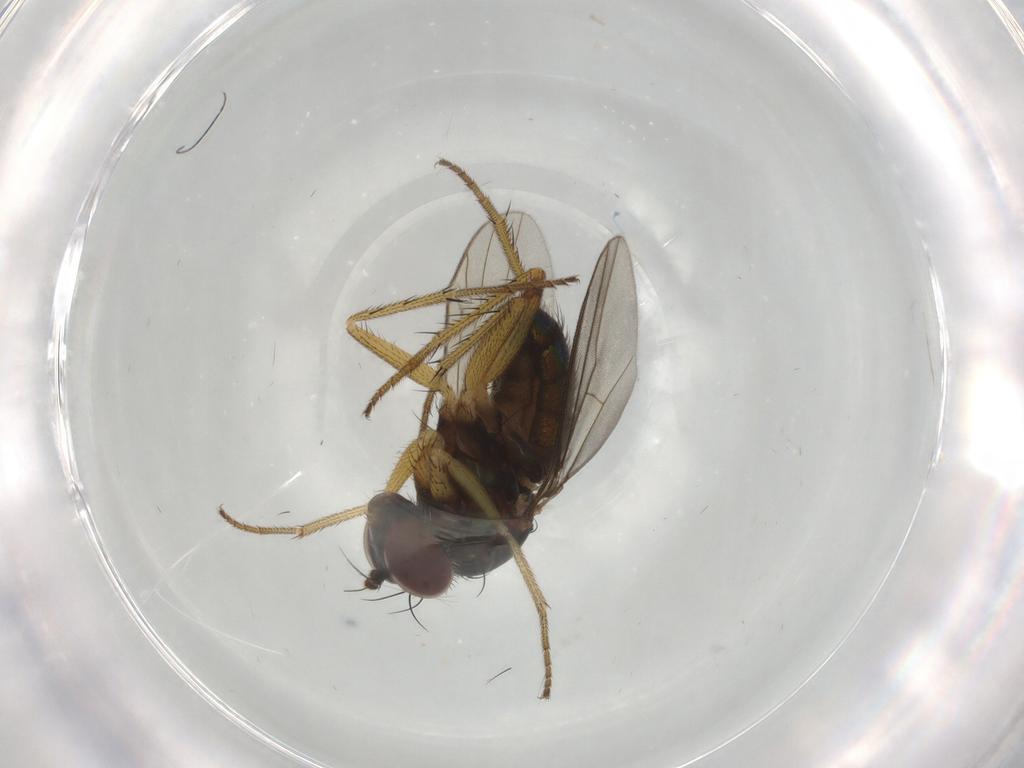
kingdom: Animalia
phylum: Arthropoda
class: Insecta
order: Diptera
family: Dolichopodidae
